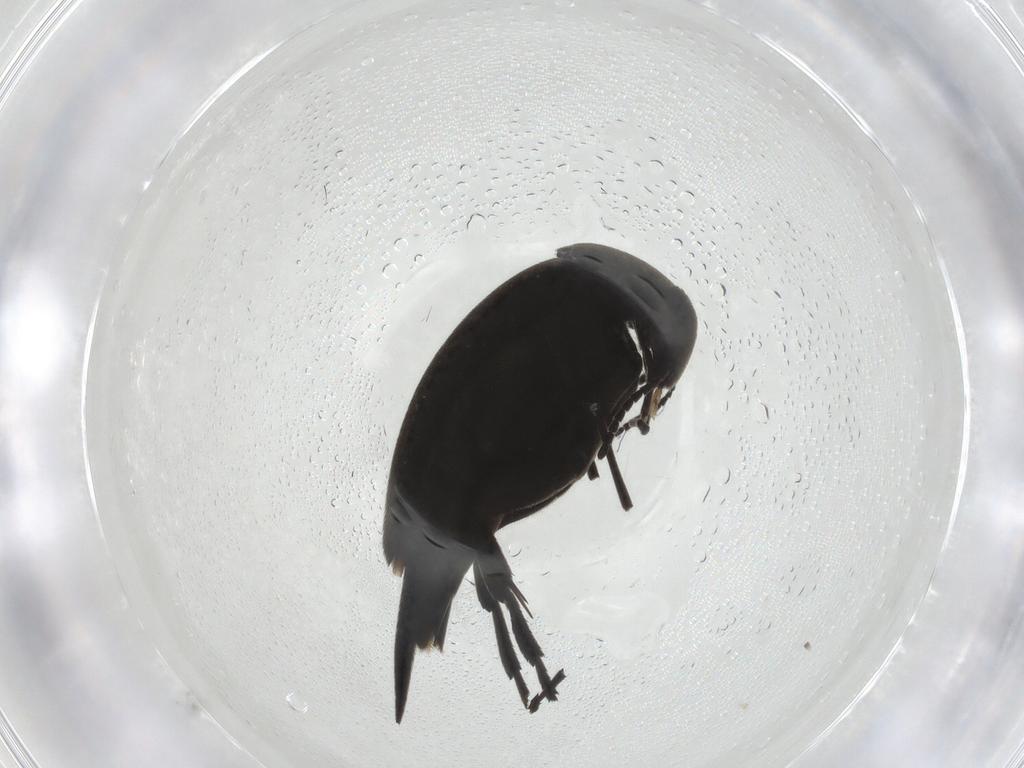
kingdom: Animalia
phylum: Arthropoda
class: Insecta
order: Coleoptera
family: Mordellidae
